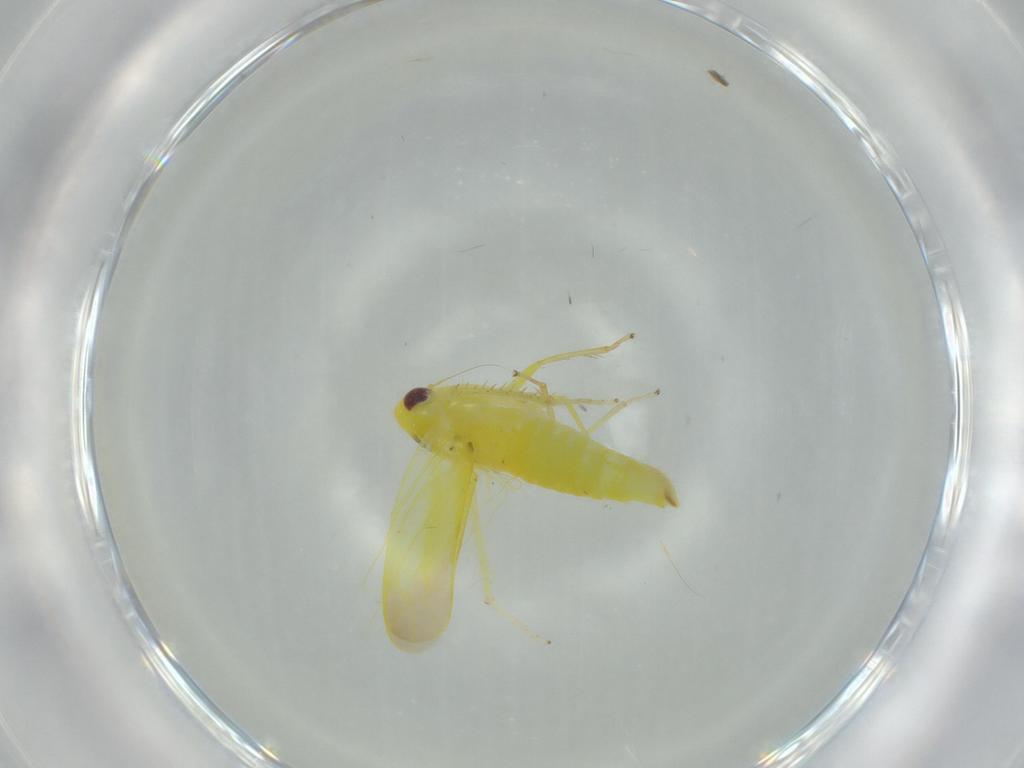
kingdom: Animalia
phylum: Arthropoda
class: Insecta
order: Hemiptera
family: Cicadellidae
